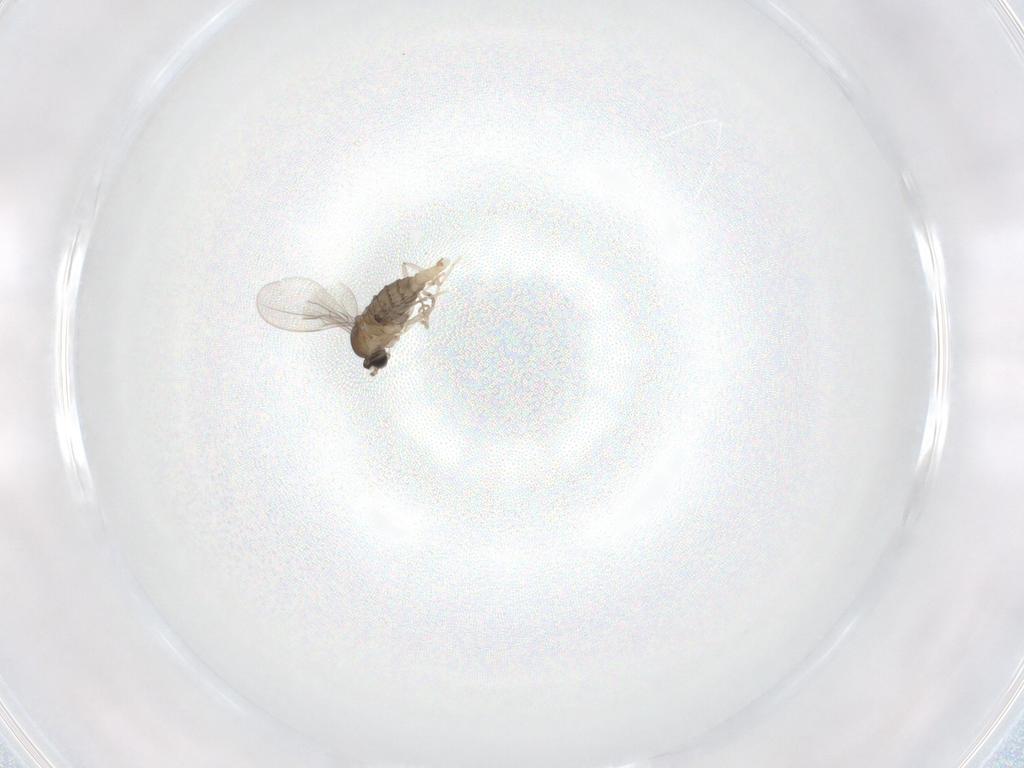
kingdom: Animalia
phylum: Arthropoda
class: Insecta
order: Diptera
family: Cecidomyiidae
